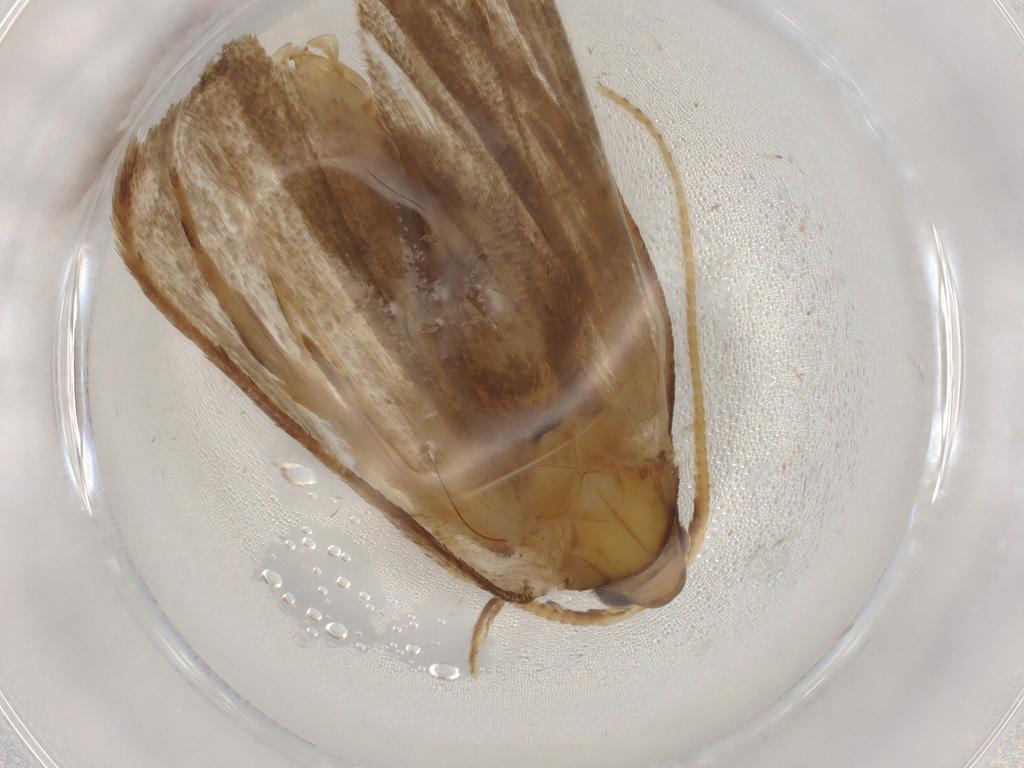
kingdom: Animalia
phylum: Arthropoda
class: Insecta
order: Lepidoptera
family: Lecithoceridae
